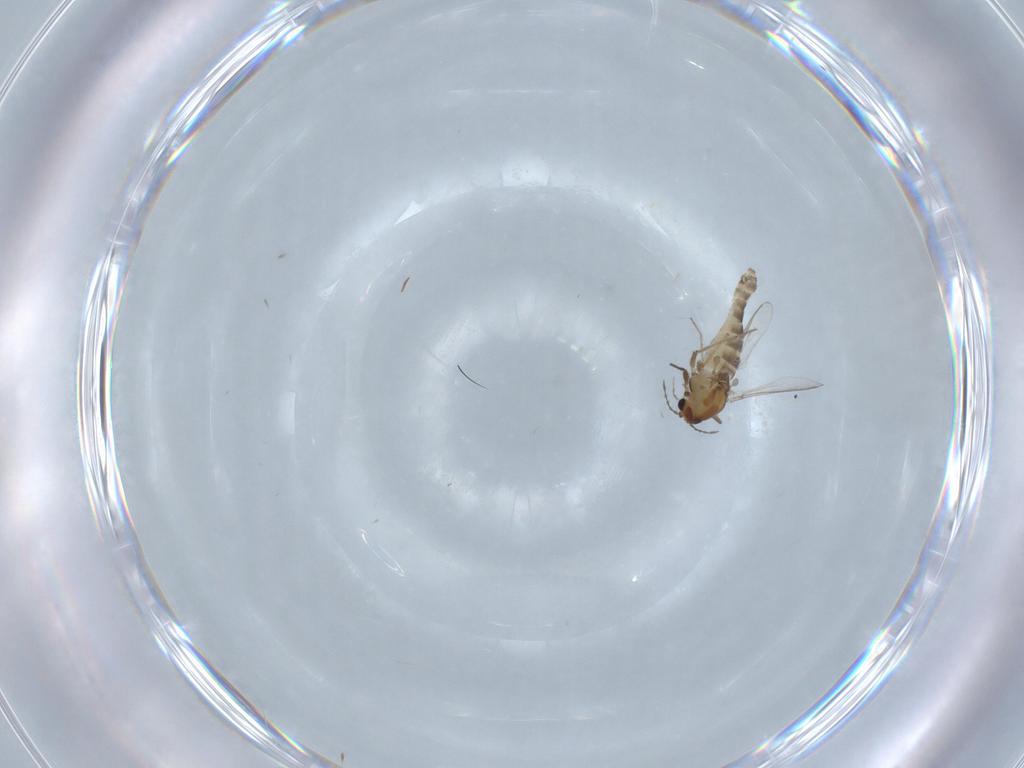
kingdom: Animalia
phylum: Arthropoda
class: Insecta
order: Diptera
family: Chironomidae
